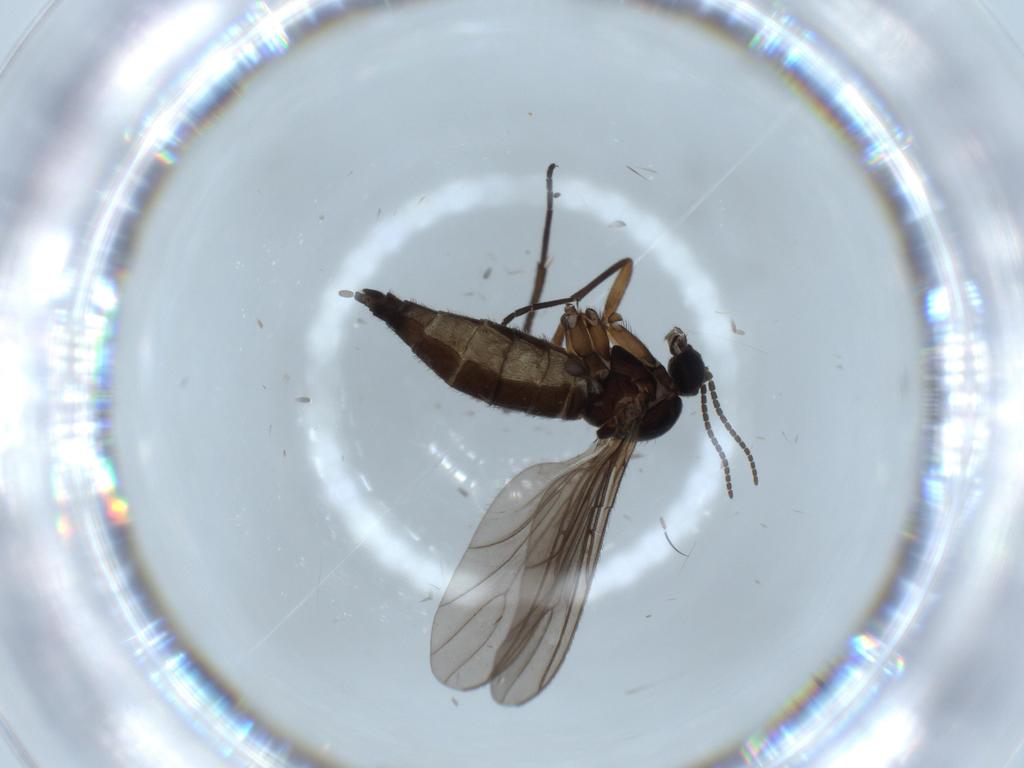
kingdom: Animalia
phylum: Arthropoda
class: Insecta
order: Diptera
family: Sciaridae
